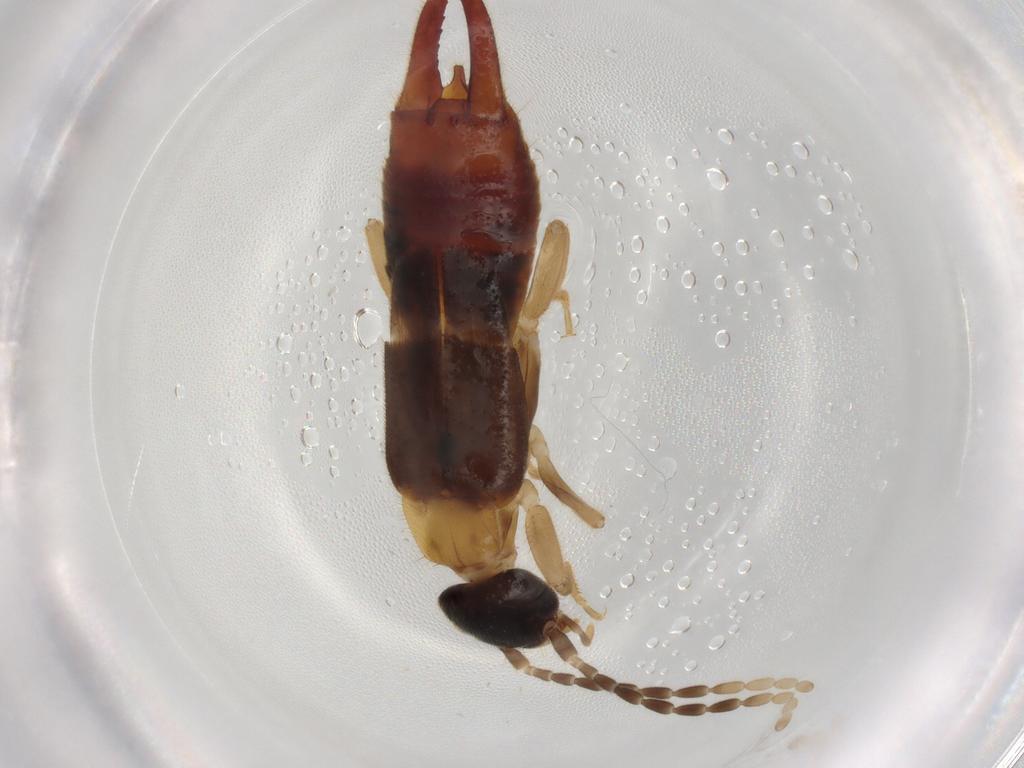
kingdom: Animalia
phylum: Arthropoda
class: Insecta
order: Dermaptera
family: Spongiphoridae
